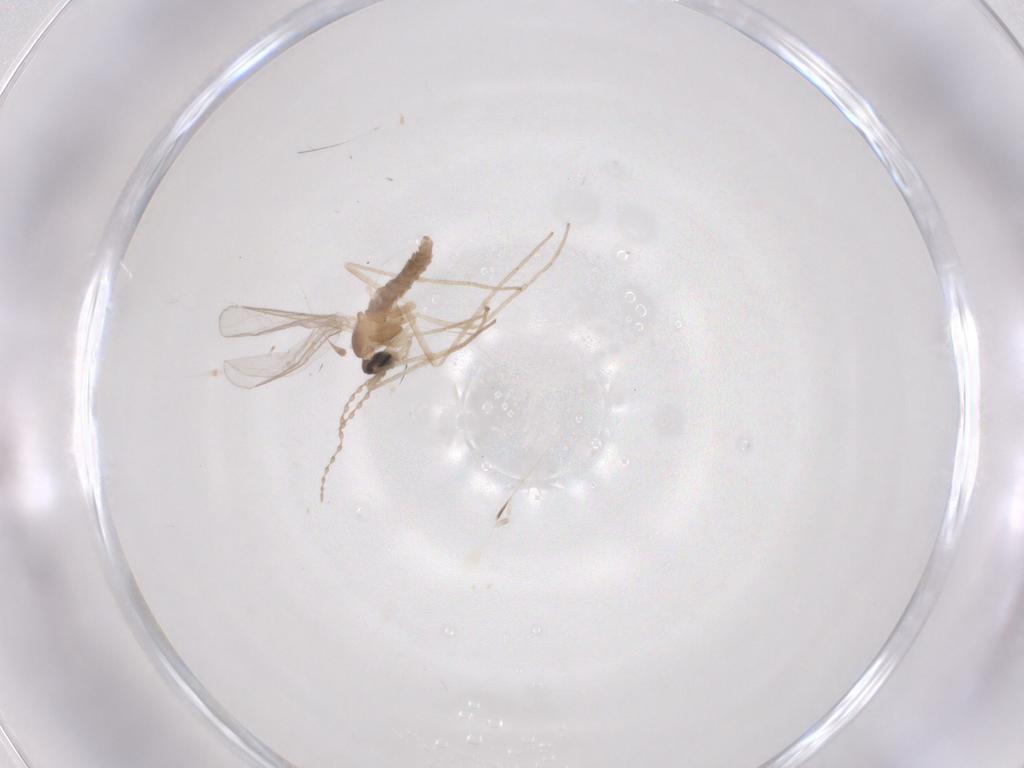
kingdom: Animalia
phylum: Arthropoda
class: Insecta
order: Diptera
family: Cecidomyiidae
